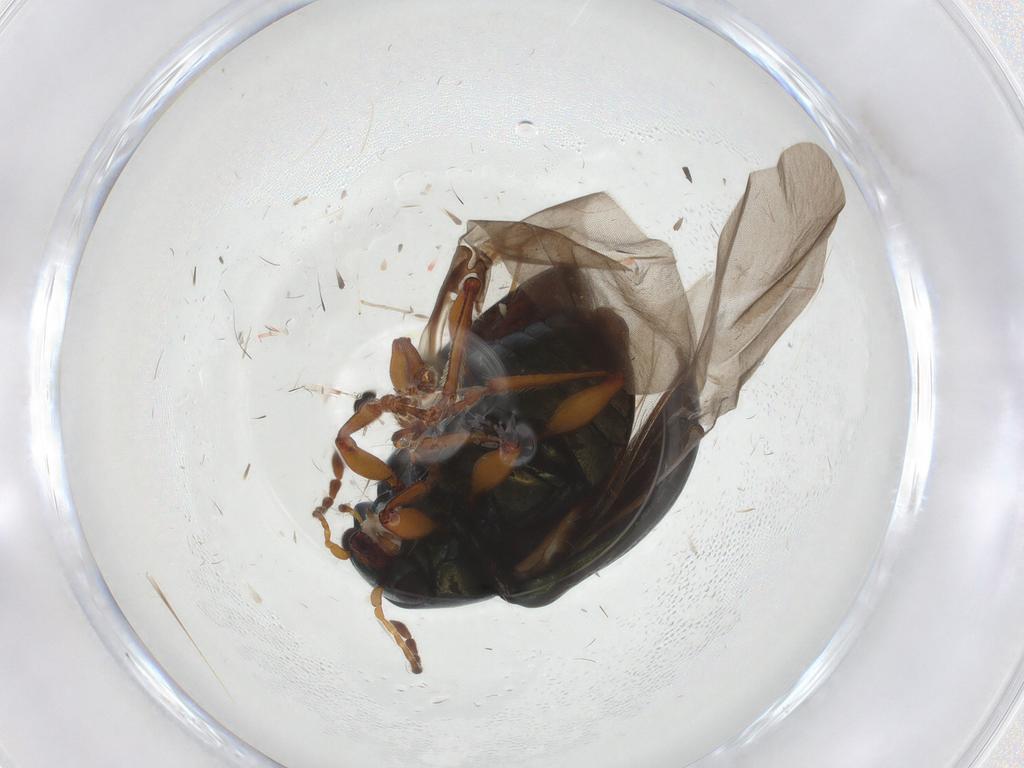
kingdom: Animalia
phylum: Arthropoda
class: Insecta
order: Coleoptera
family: Chrysomelidae
